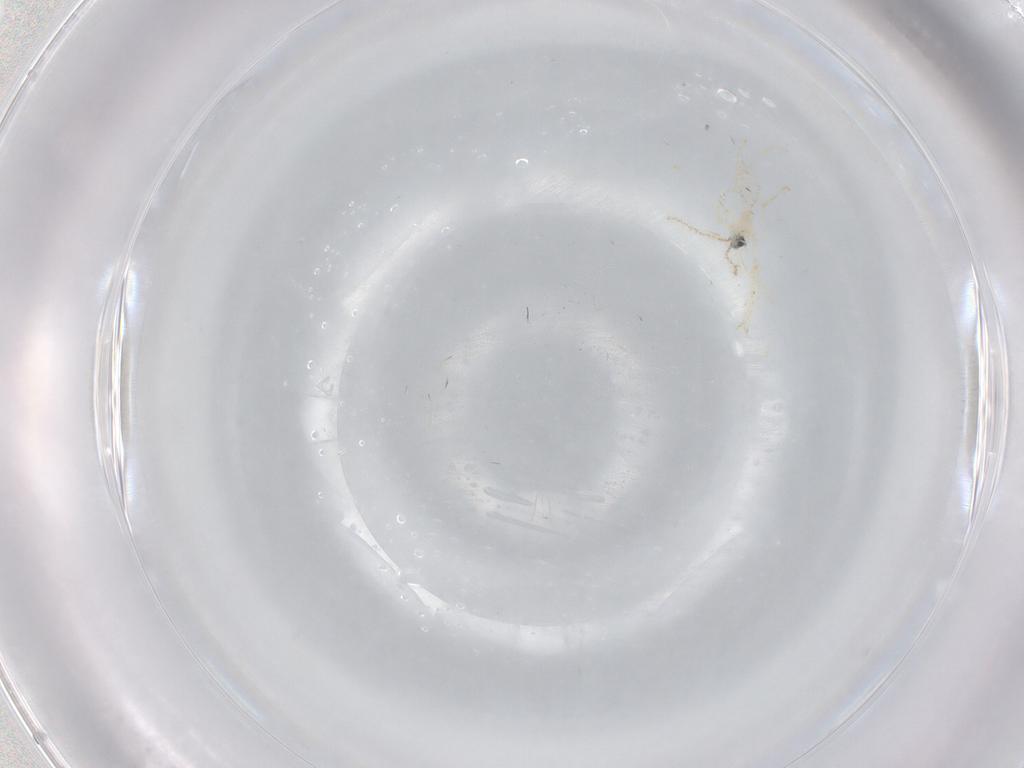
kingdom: Animalia
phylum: Arthropoda
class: Insecta
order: Diptera
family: Cecidomyiidae
